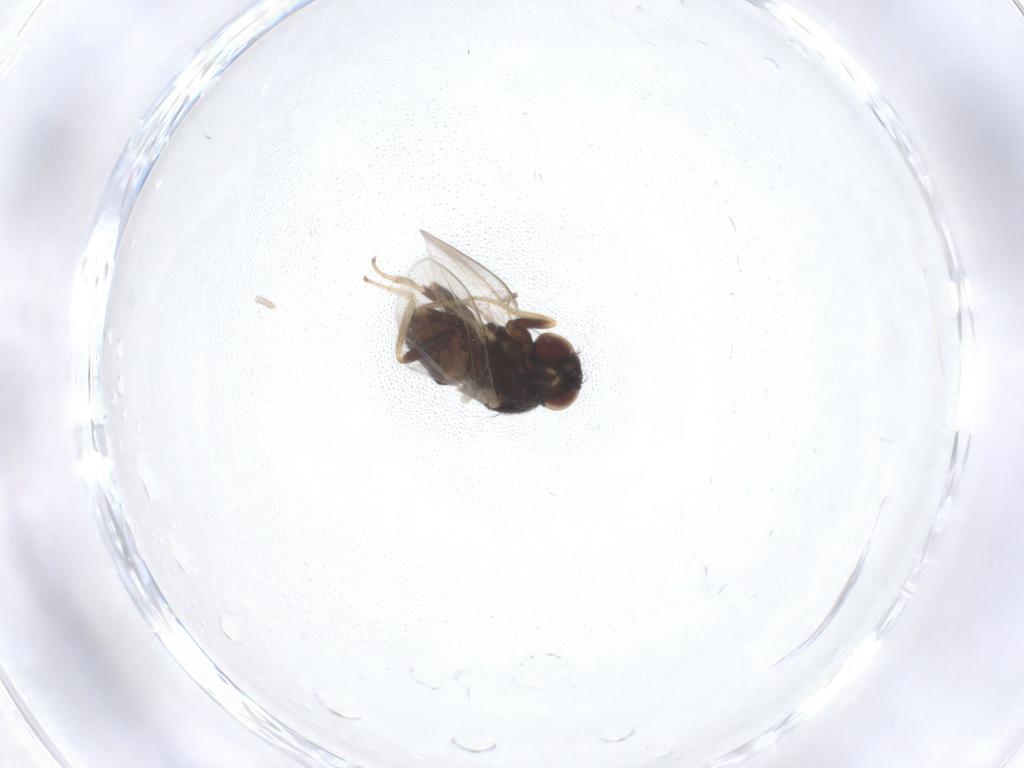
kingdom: Animalia
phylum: Arthropoda
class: Insecta
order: Diptera
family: Milichiidae
